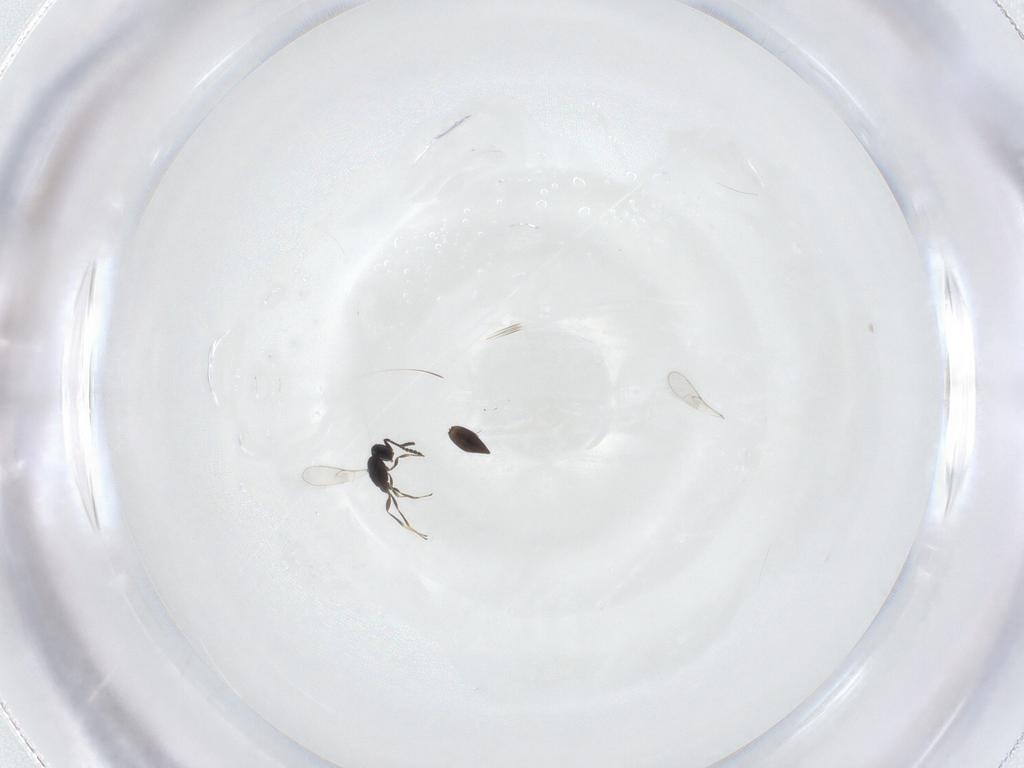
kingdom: Animalia
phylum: Arthropoda
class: Insecta
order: Hymenoptera
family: Scelionidae
